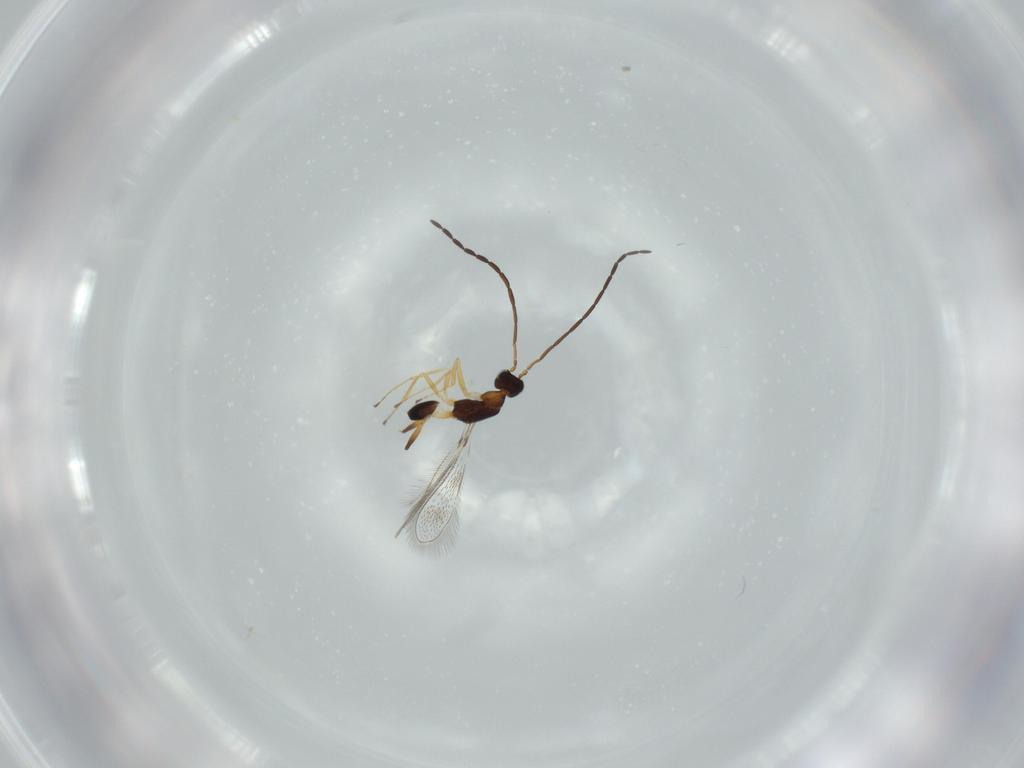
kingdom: Animalia
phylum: Arthropoda
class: Insecta
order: Hymenoptera
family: Mymaridae
